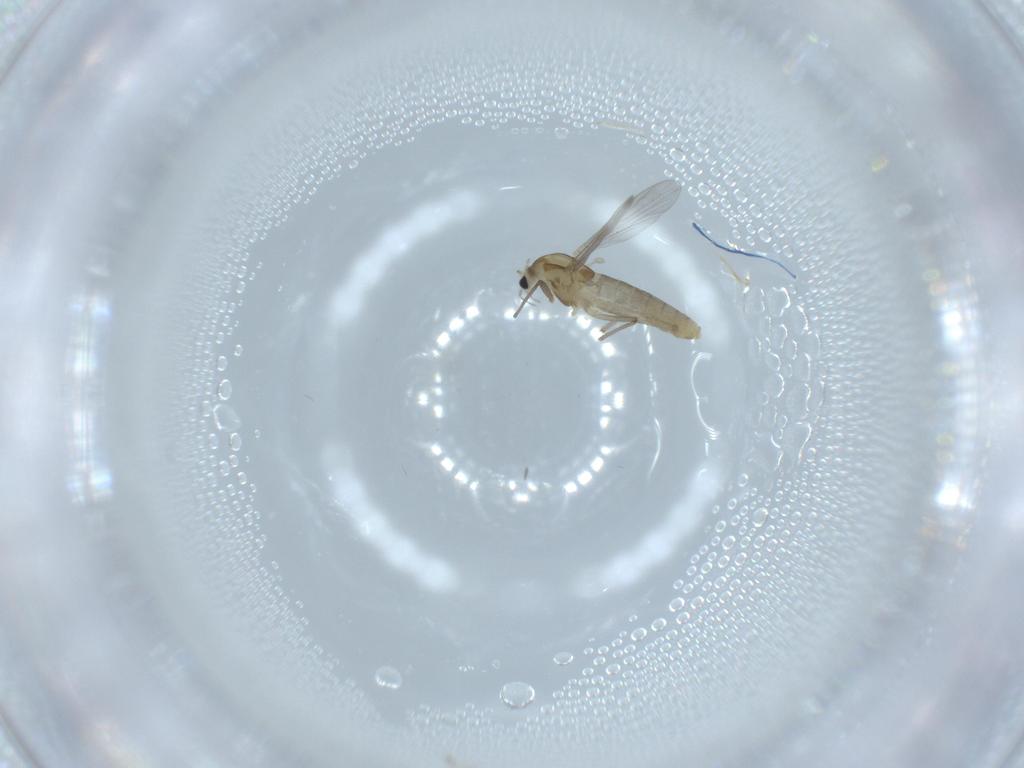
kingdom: Animalia
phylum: Arthropoda
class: Insecta
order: Diptera
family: Chironomidae
